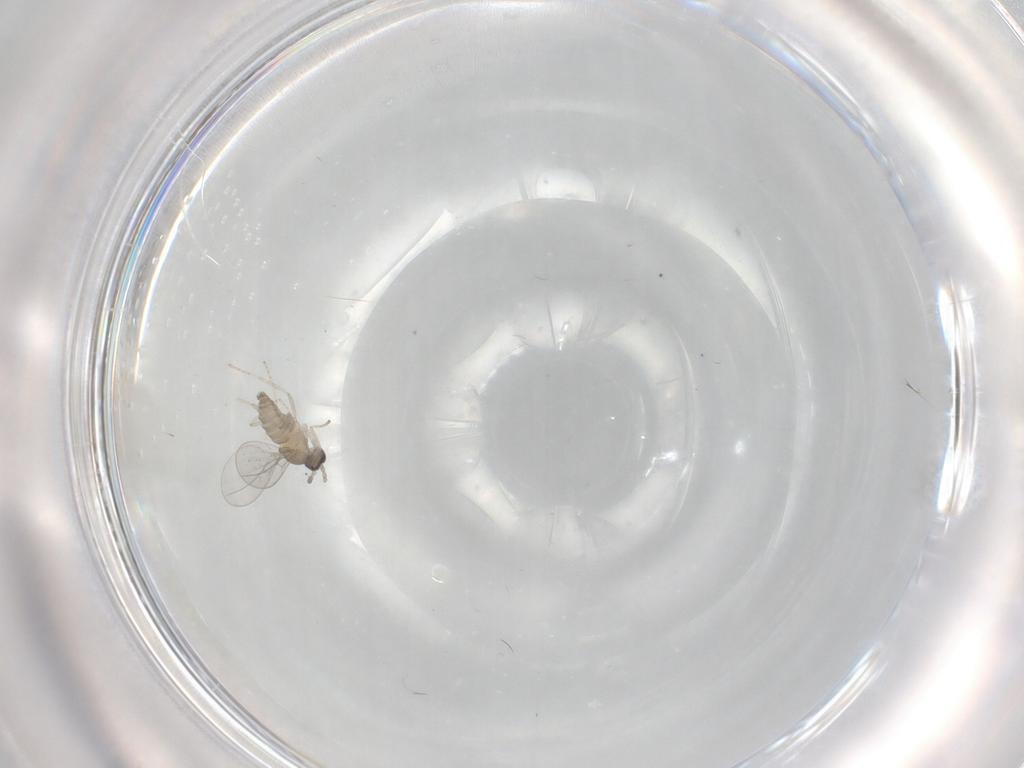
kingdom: Animalia
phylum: Arthropoda
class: Insecta
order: Diptera
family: Cecidomyiidae
